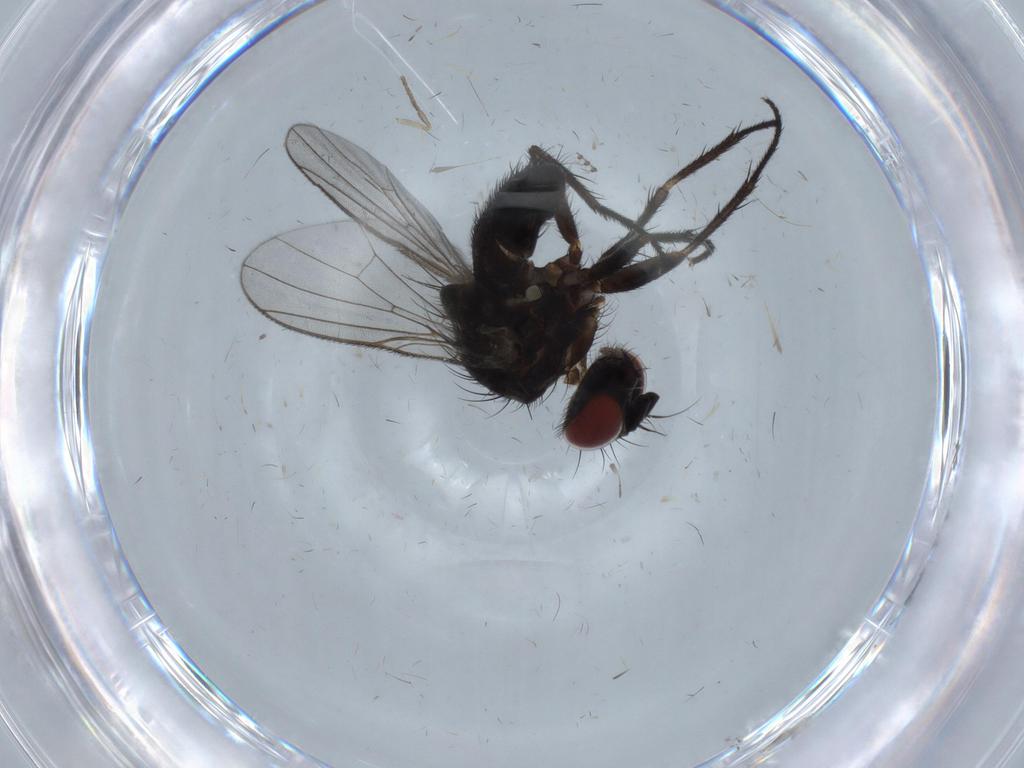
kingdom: Animalia
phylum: Arthropoda
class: Insecta
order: Diptera
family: Muscidae
